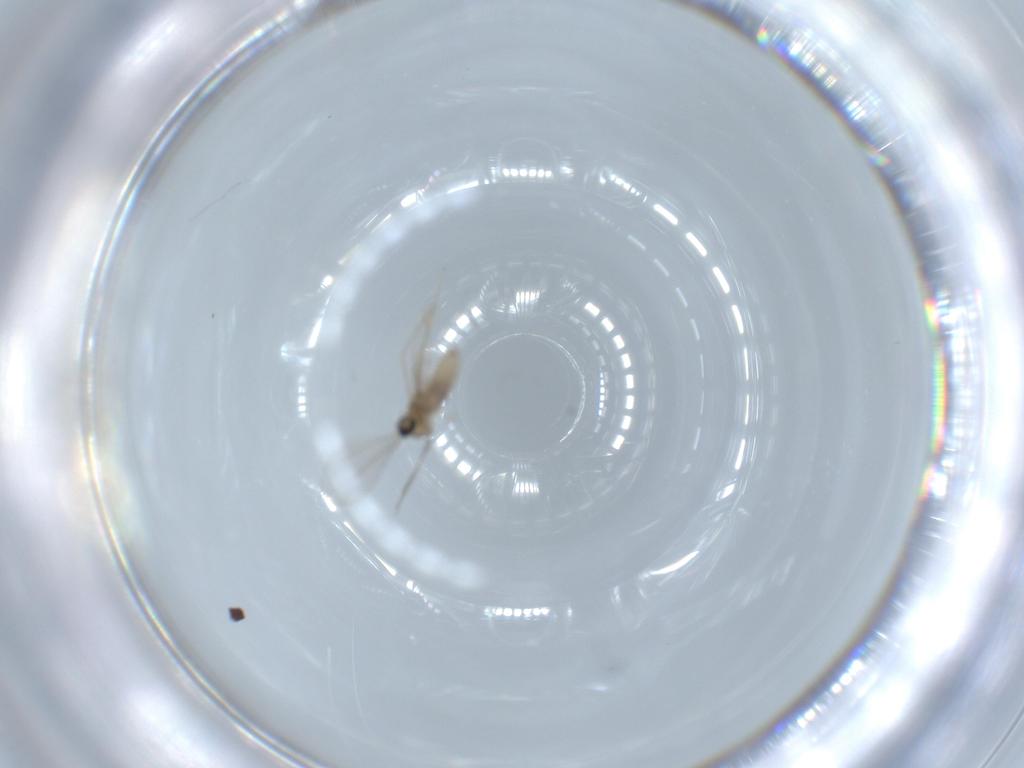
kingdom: Animalia
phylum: Arthropoda
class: Insecta
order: Diptera
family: Cecidomyiidae
